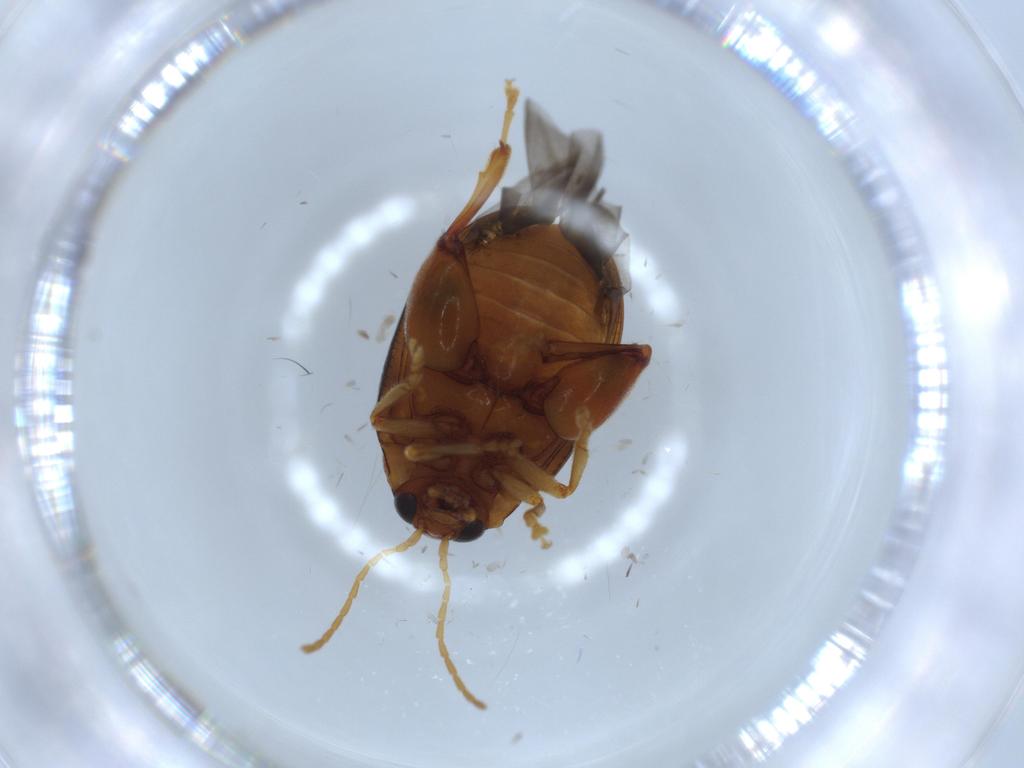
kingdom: Animalia
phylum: Arthropoda
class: Insecta
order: Coleoptera
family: Chrysomelidae
